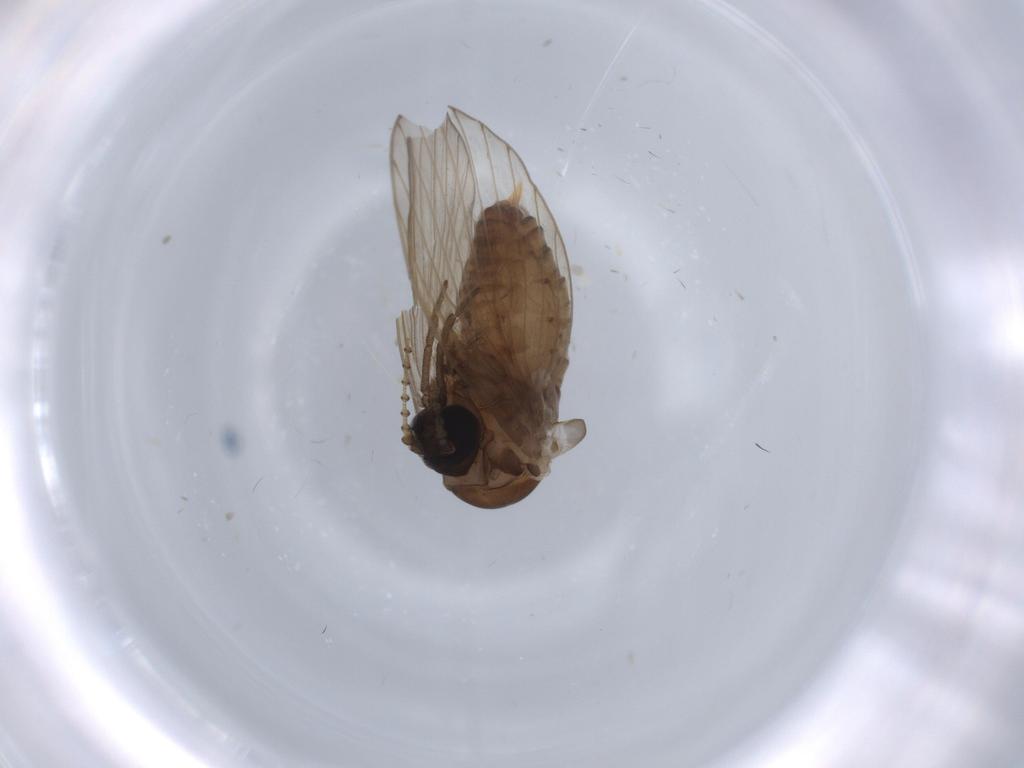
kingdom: Animalia
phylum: Arthropoda
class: Insecta
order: Diptera
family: Psychodidae
